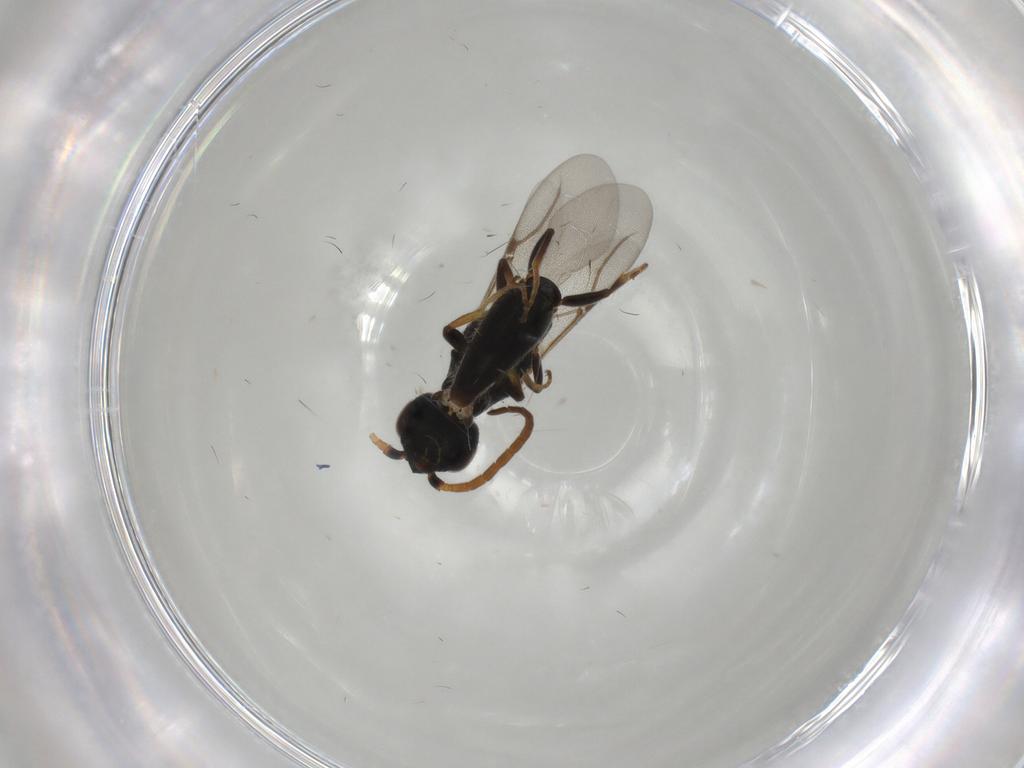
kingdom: Animalia
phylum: Arthropoda
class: Insecta
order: Hymenoptera
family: Bethylidae
